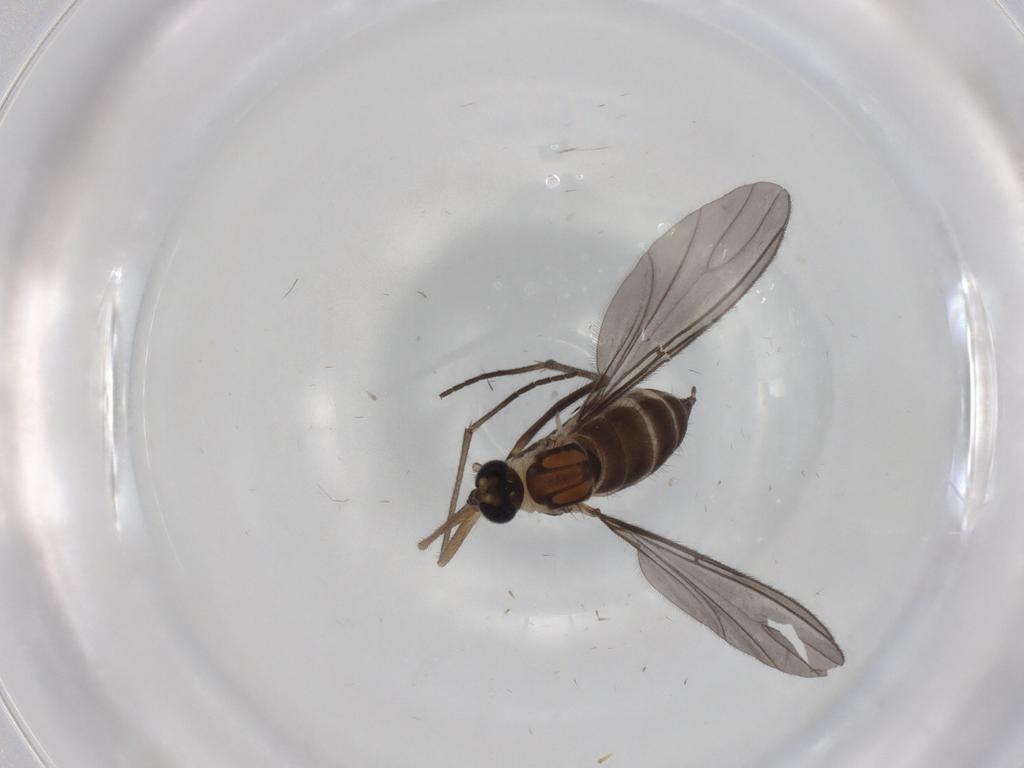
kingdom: Animalia
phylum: Arthropoda
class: Insecta
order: Diptera
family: Sciaridae
